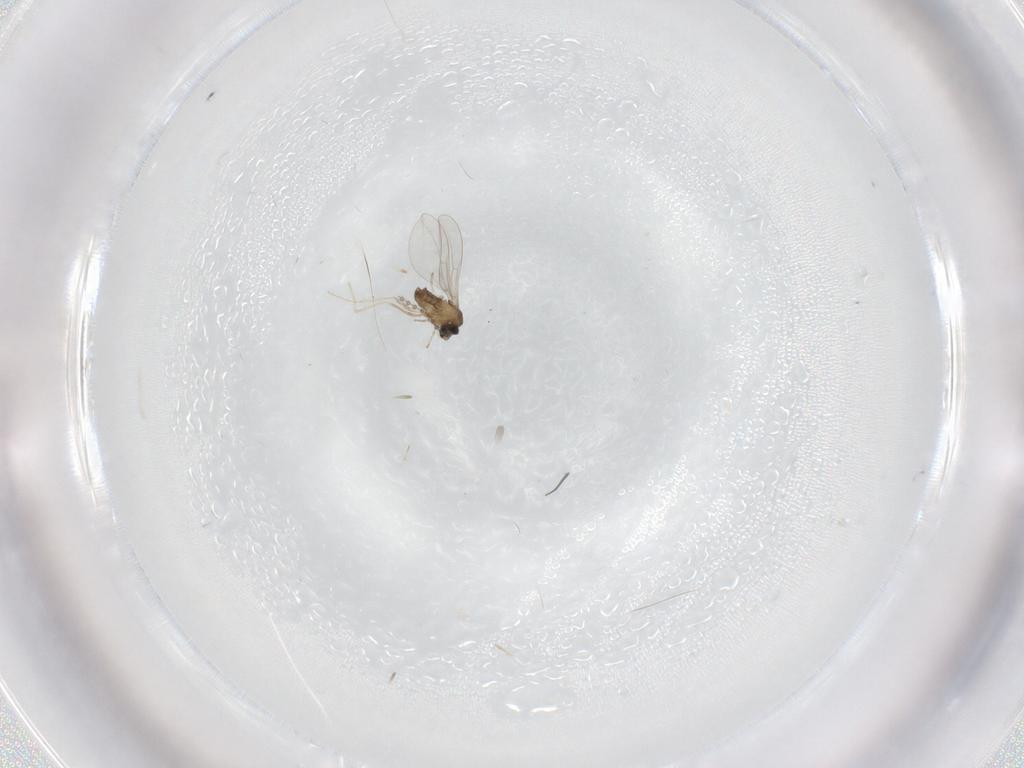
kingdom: Animalia
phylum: Arthropoda
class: Insecta
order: Diptera
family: Cecidomyiidae
